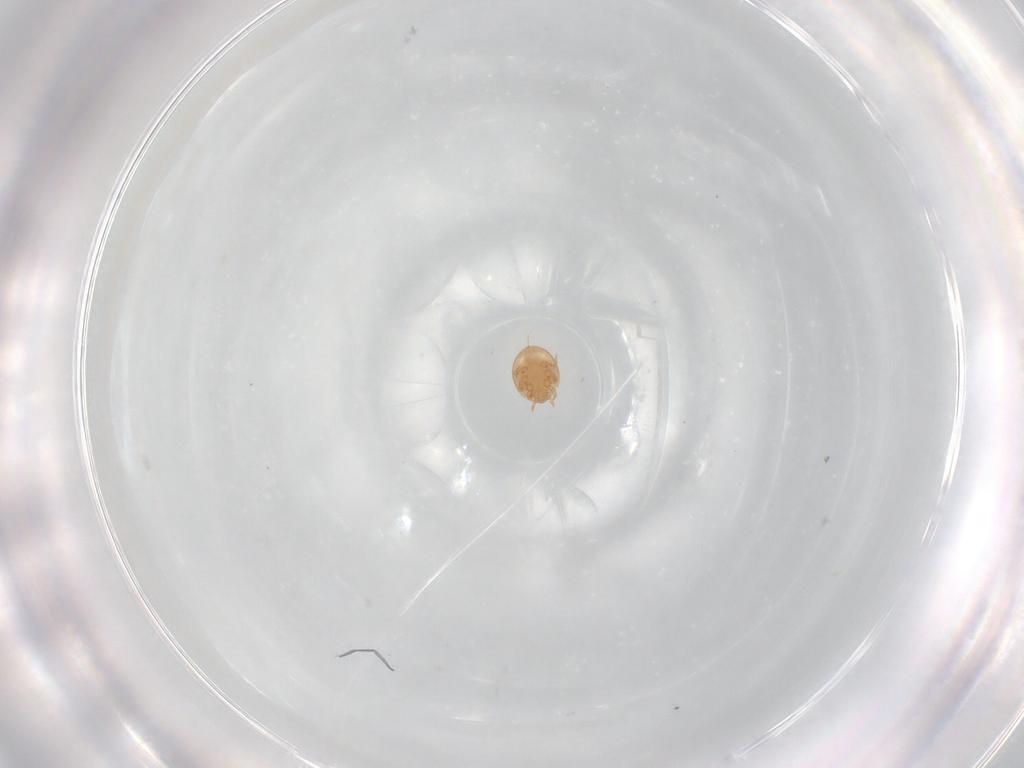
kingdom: Animalia
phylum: Arthropoda
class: Arachnida
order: Mesostigmata
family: Trematuridae
